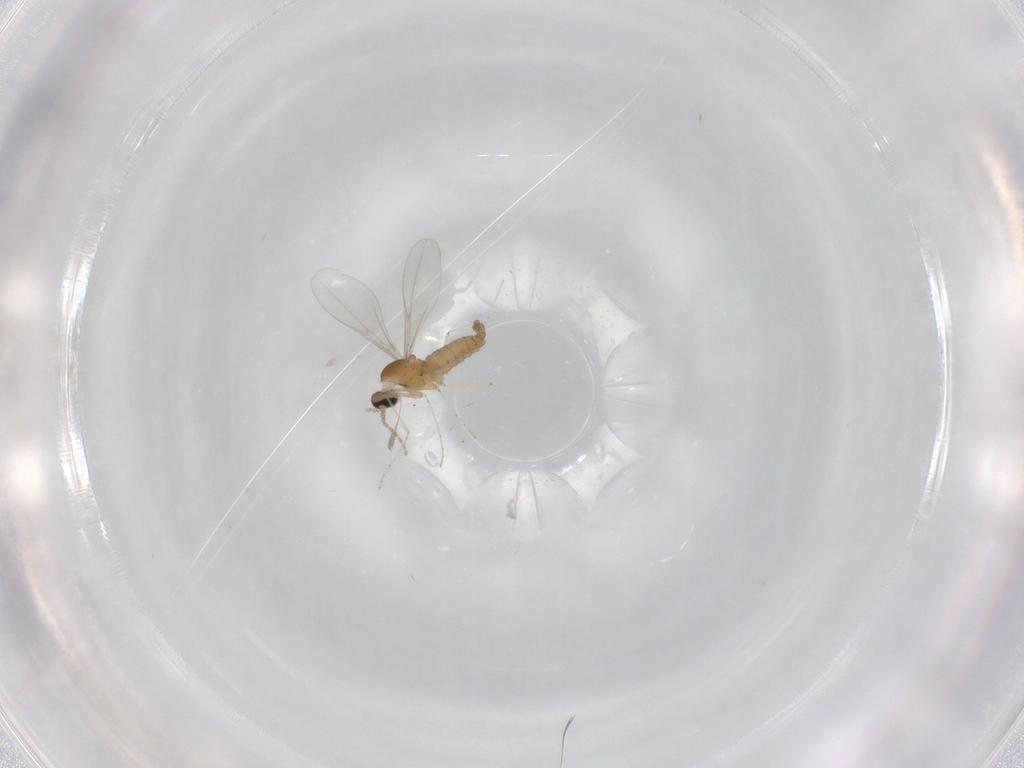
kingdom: Animalia
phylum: Arthropoda
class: Insecta
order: Diptera
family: Cecidomyiidae
